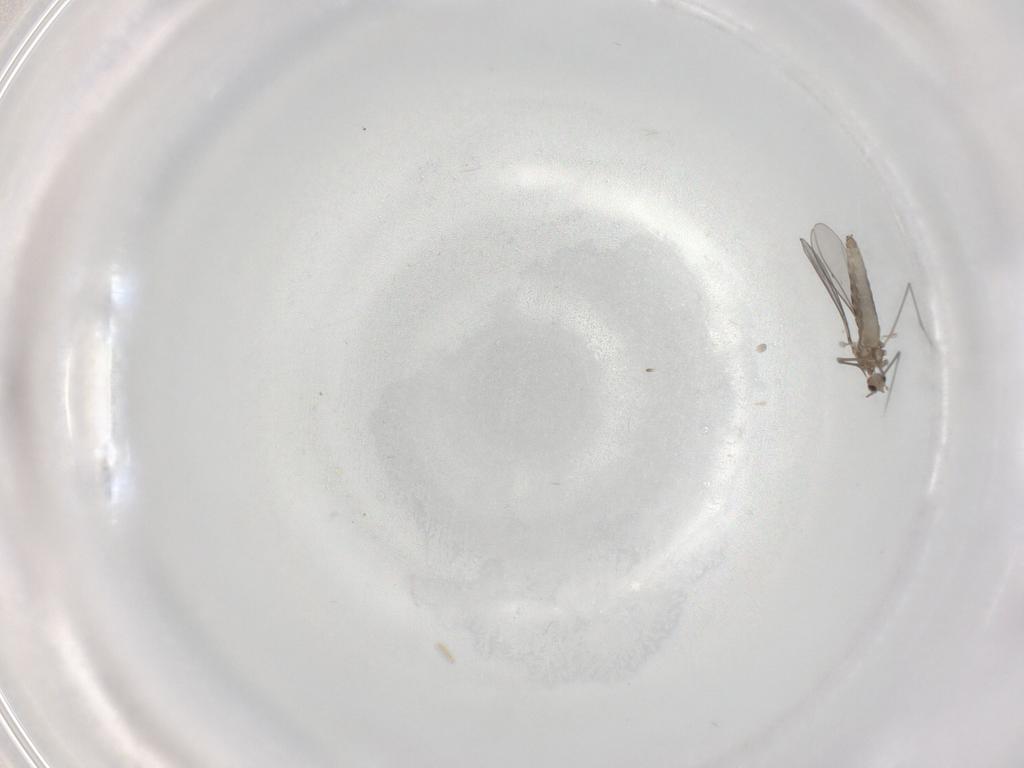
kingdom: Animalia
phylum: Arthropoda
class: Insecta
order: Diptera
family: Cecidomyiidae
